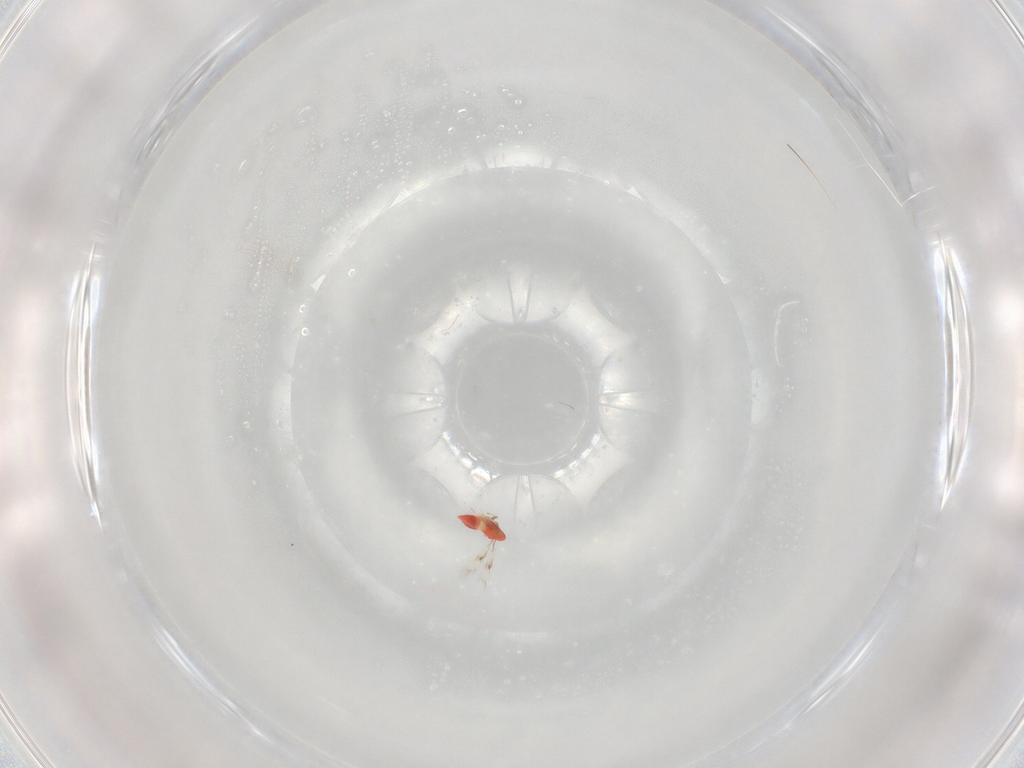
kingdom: Animalia
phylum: Arthropoda
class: Insecta
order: Hymenoptera
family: Trichogrammatidae
